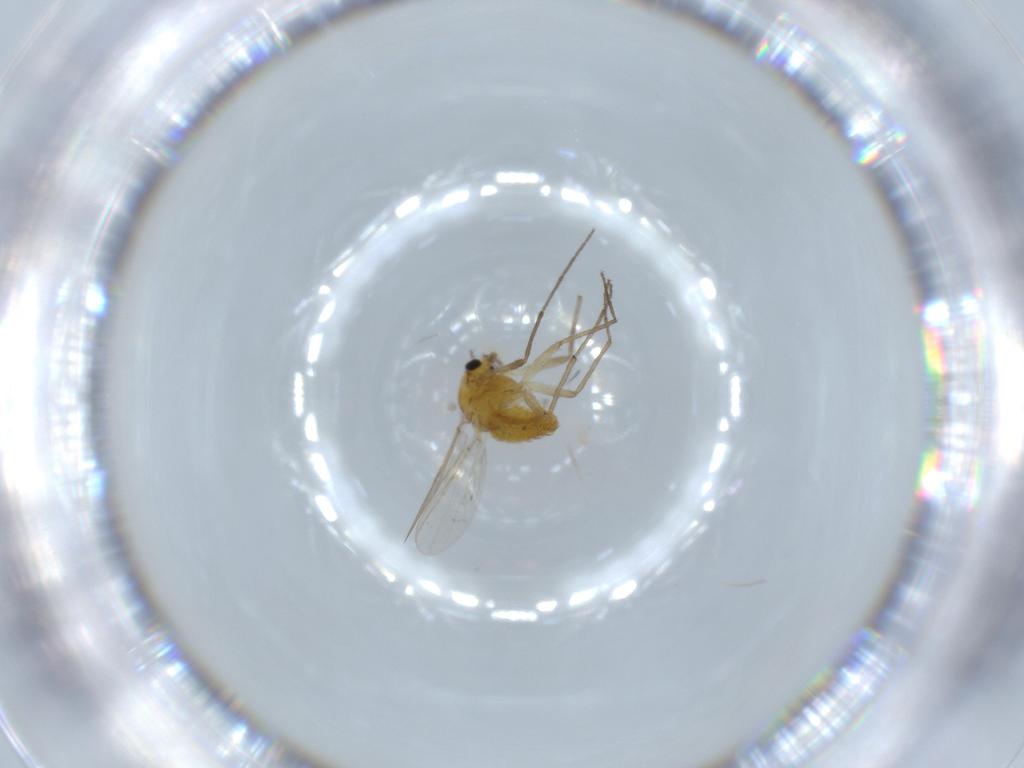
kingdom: Animalia
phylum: Arthropoda
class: Insecta
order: Diptera
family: Chironomidae
